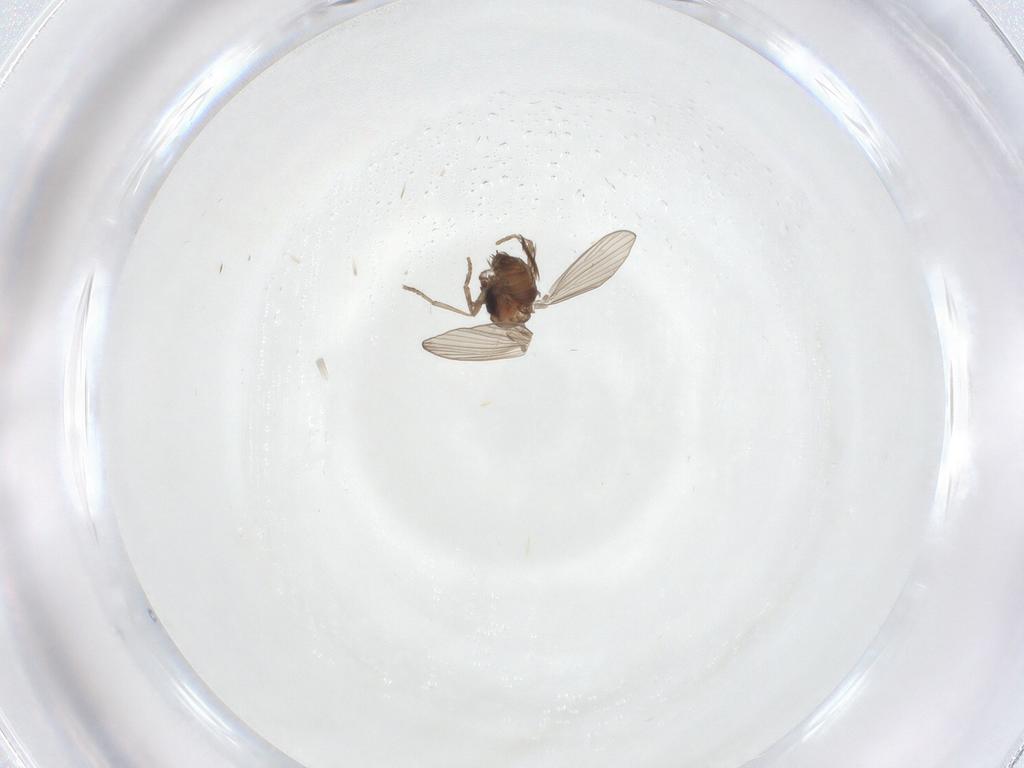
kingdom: Animalia
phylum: Arthropoda
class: Insecta
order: Diptera
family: Psychodidae
